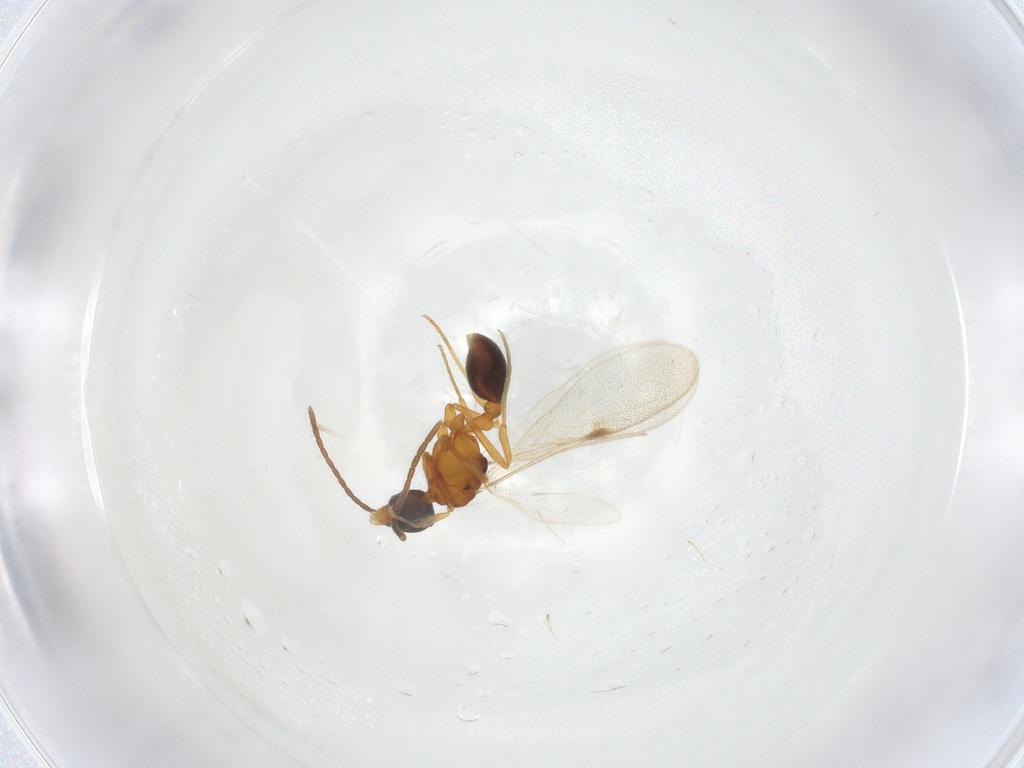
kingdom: Animalia
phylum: Arthropoda
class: Insecta
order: Hymenoptera
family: Formicidae
